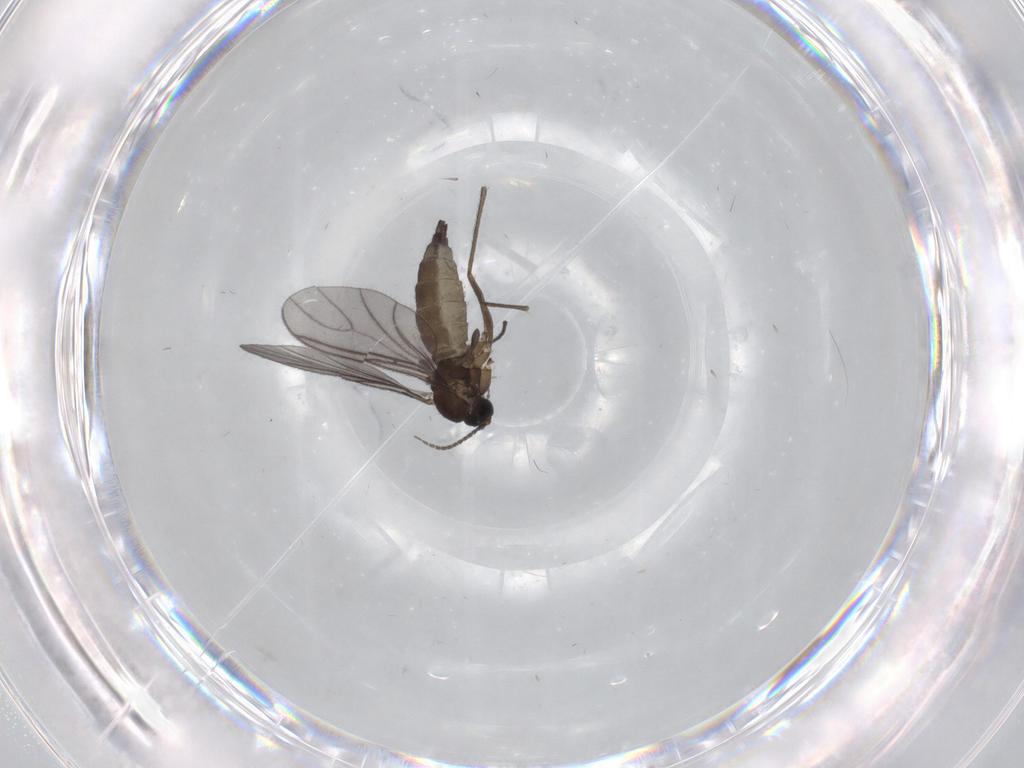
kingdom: Animalia
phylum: Arthropoda
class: Insecta
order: Diptera
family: Sciaridae
